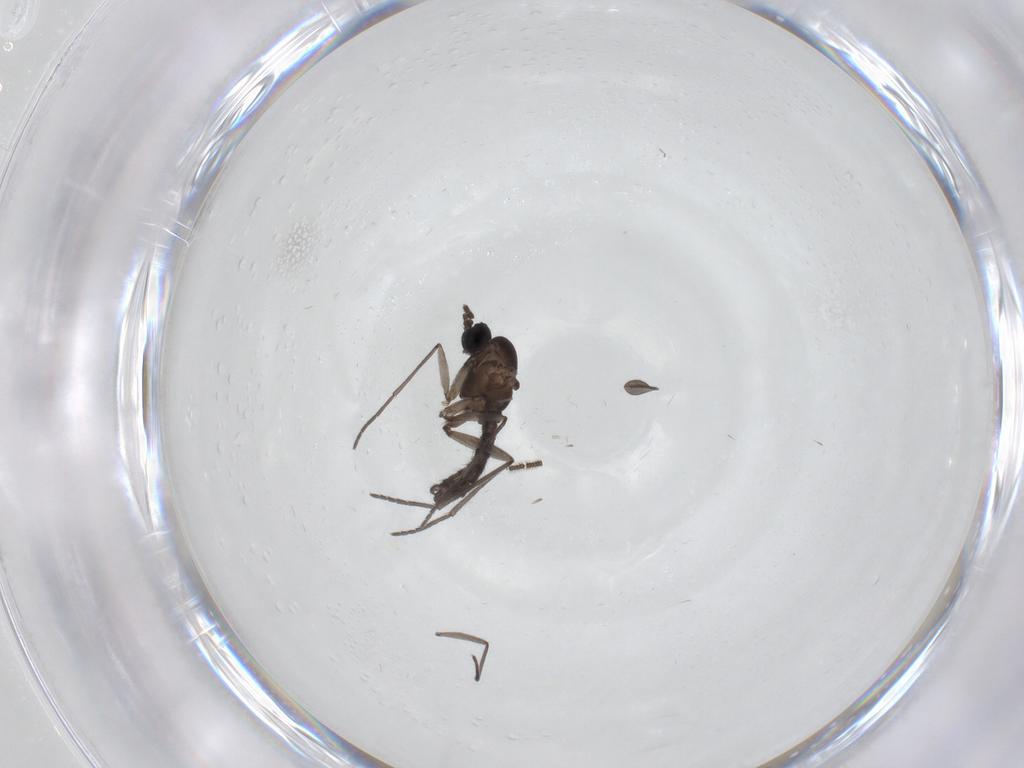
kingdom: Animalia
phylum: Arthropoda
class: Insecta
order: Diptera
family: Sciaridae
